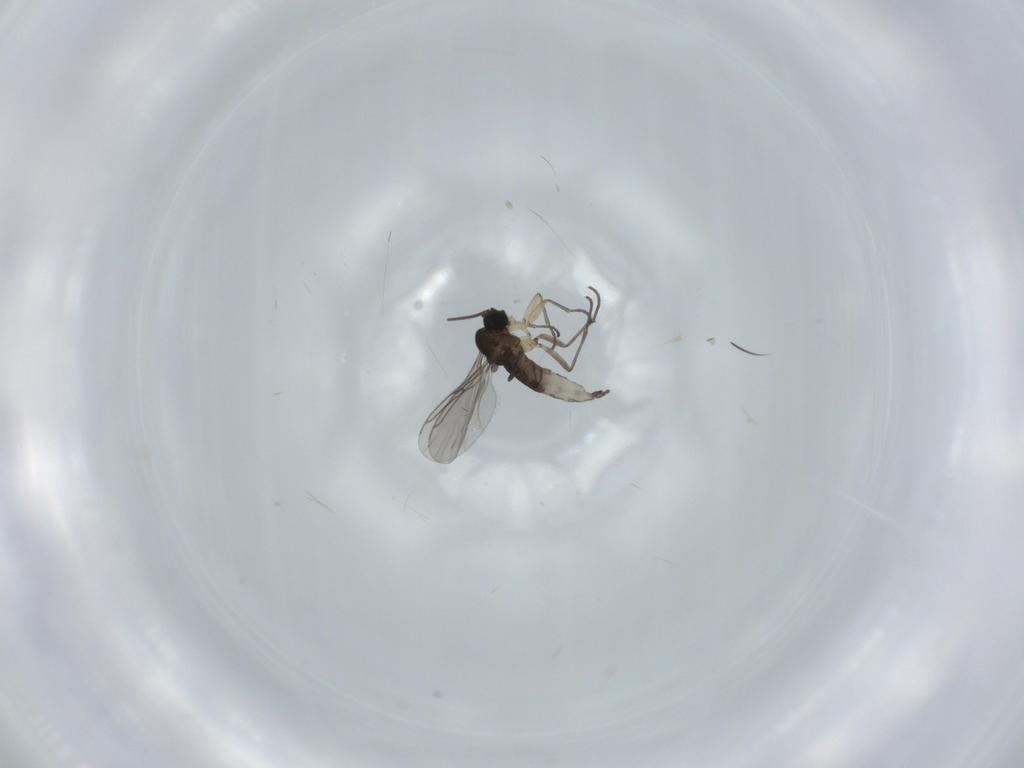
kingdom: Animalia
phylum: Arthropoda
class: Insecta
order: Diptera
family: Sciaridae
